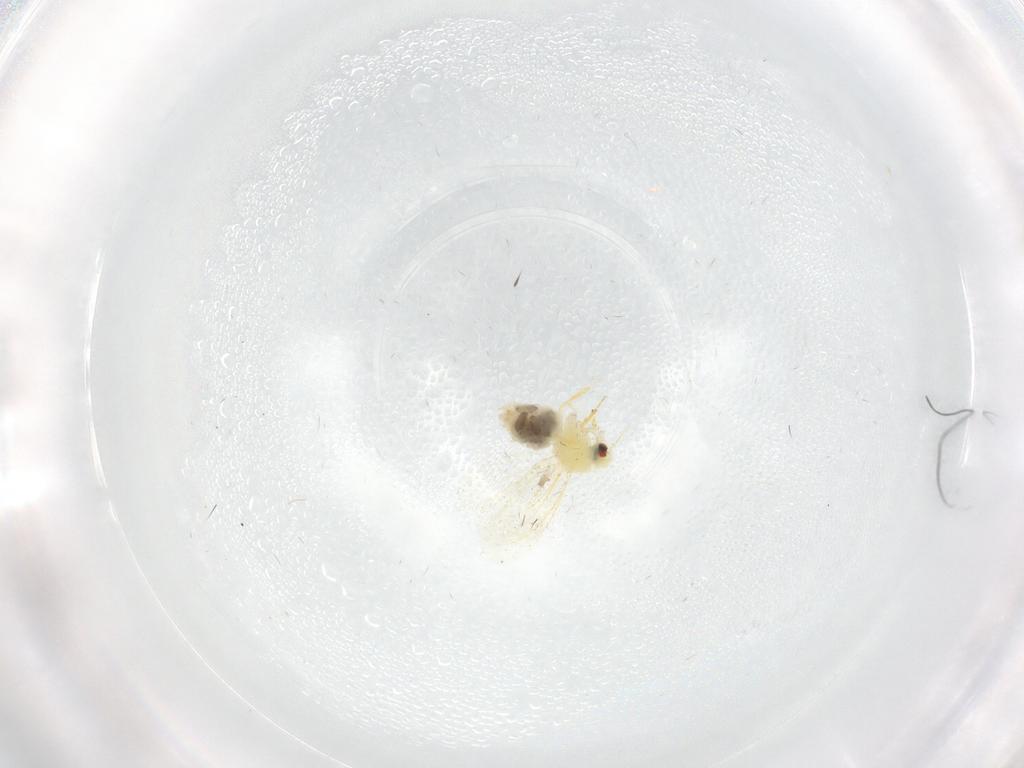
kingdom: Animalia
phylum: Arthropoda
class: Insecta
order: Hemiptera
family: Aleyrodidae
